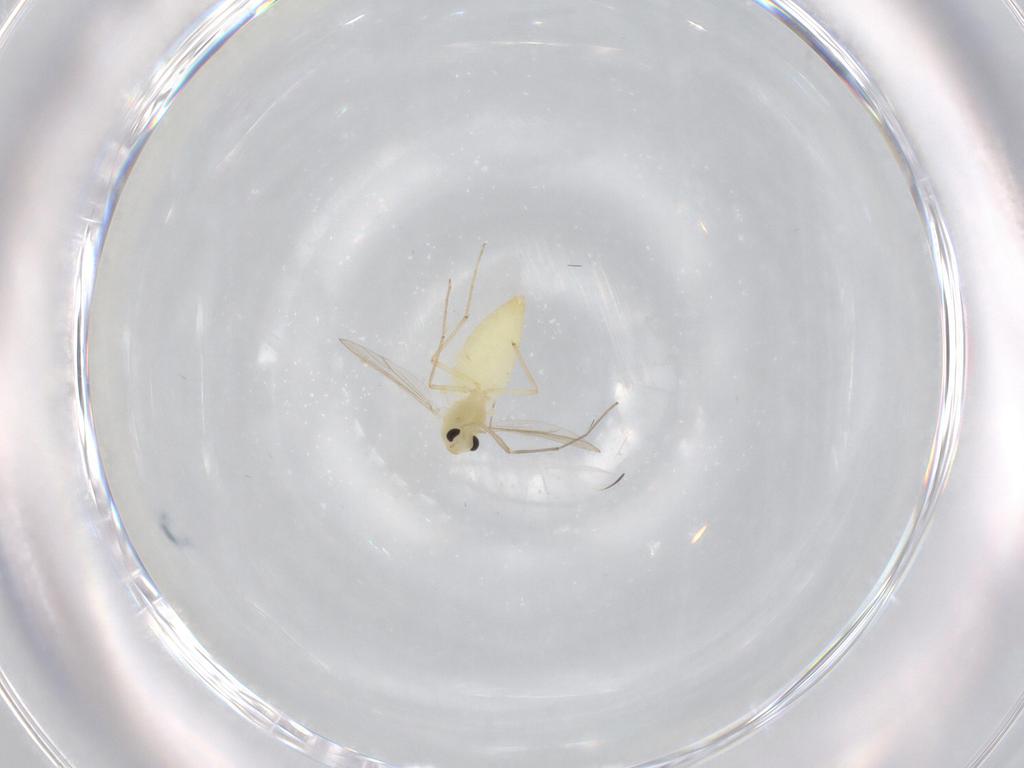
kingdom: Animalia
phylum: Arthropoda
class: Insecta
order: Diptera
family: Chironomidae
